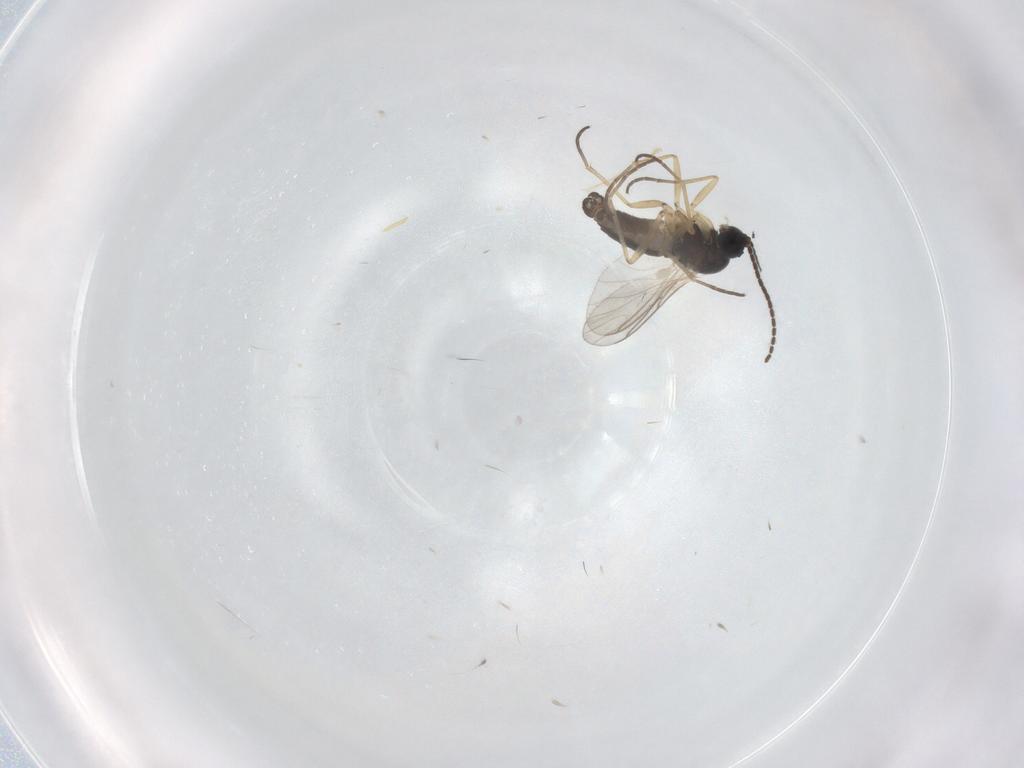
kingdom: Animalia
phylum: Arthropoda
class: Insecta
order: Diptera
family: Sciaridae
